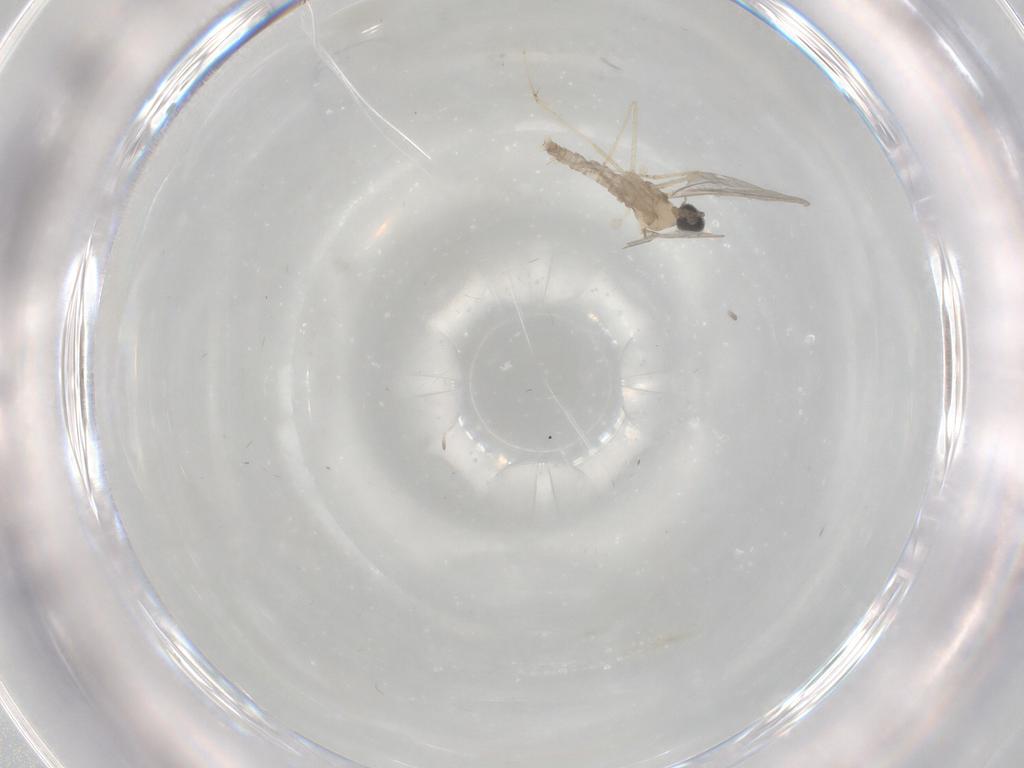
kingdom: Animalia
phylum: Arthropoda
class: Insecta
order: Diptera
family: Cecidomyiidae
